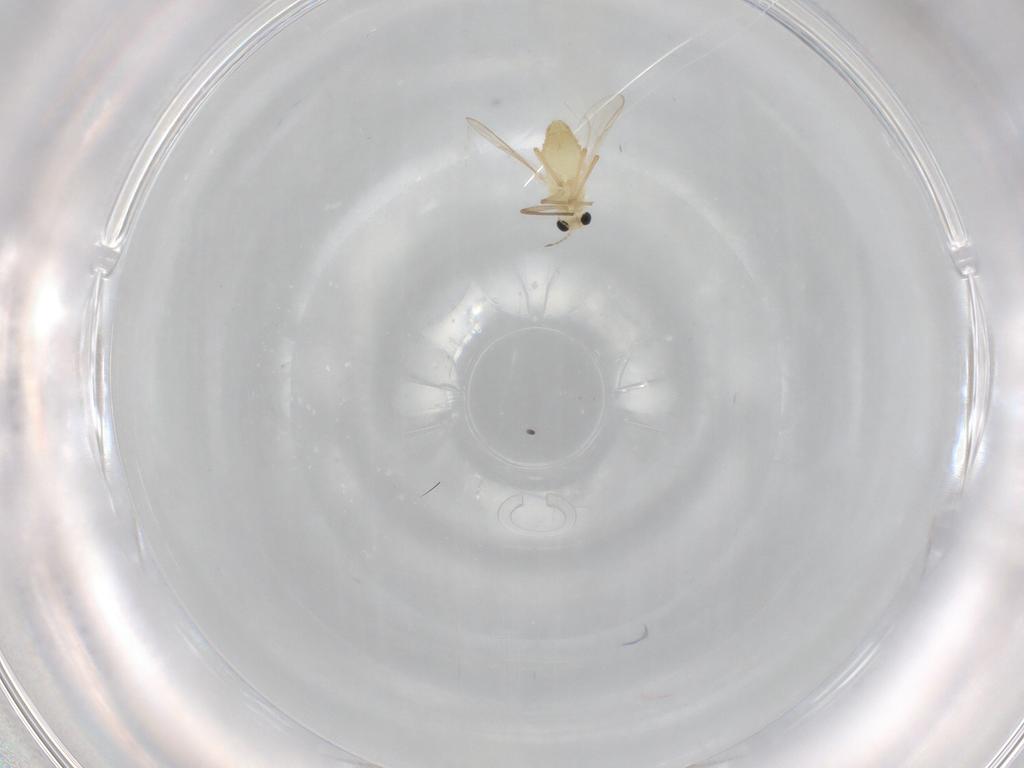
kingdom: Animalia
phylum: Arthropoda
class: Insecta
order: Diptera
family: Chironomidae
